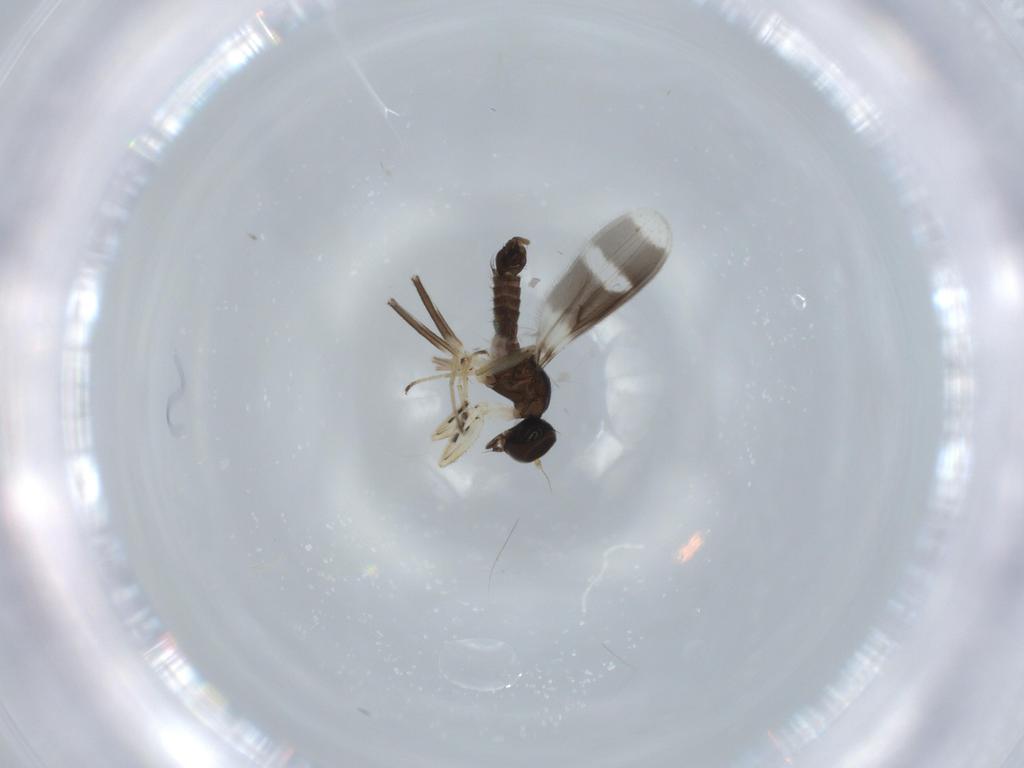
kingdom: Animalia
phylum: Arthropoda
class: Insecta
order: Diptera
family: Hybotidae
